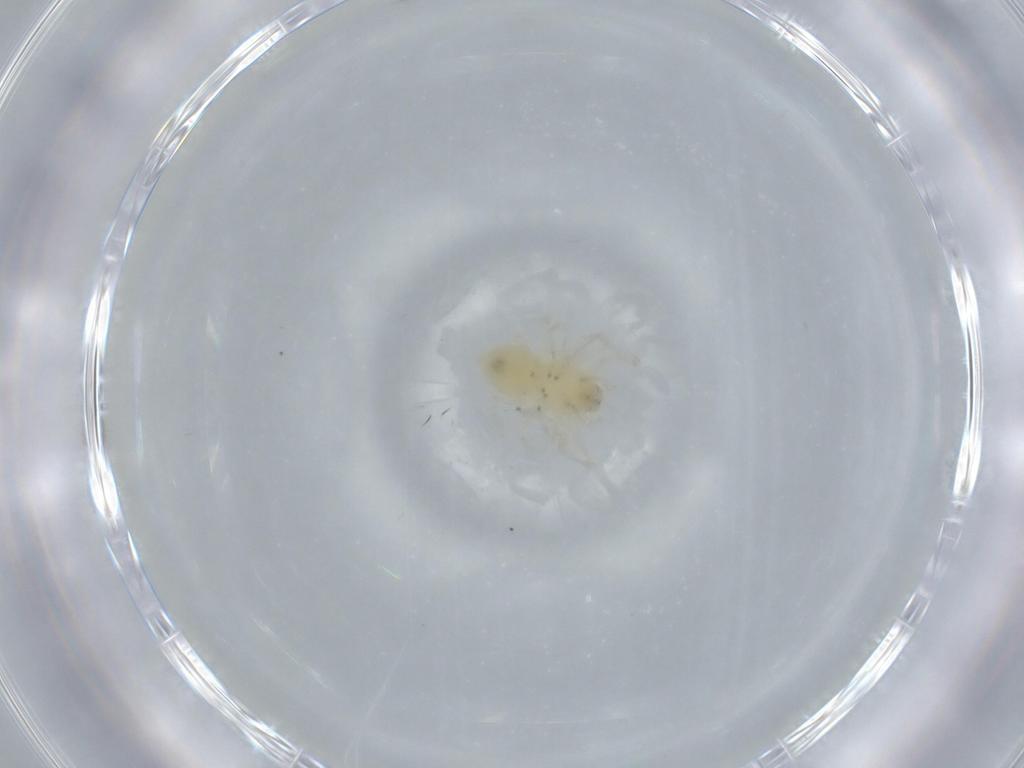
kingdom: Animalia
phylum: Arthropoda
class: Arachnida
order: Araneae
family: Anyphaenidae
